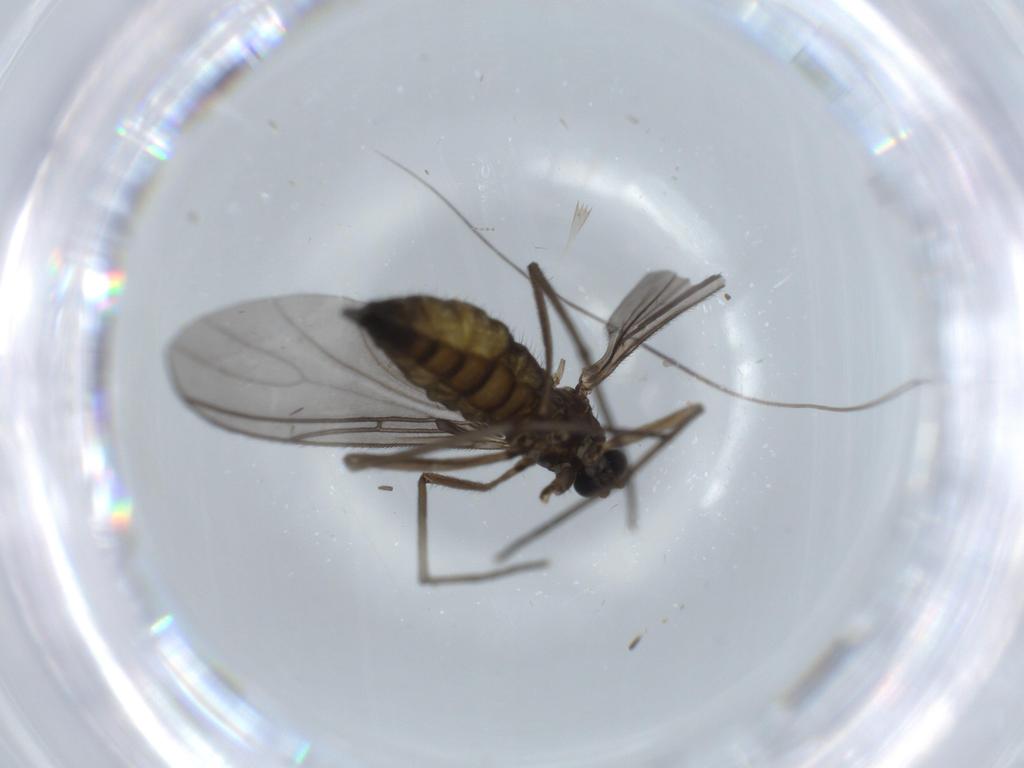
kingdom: Animalia
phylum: Arthropoda
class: Insecta
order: Diptera
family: Sciaridae
